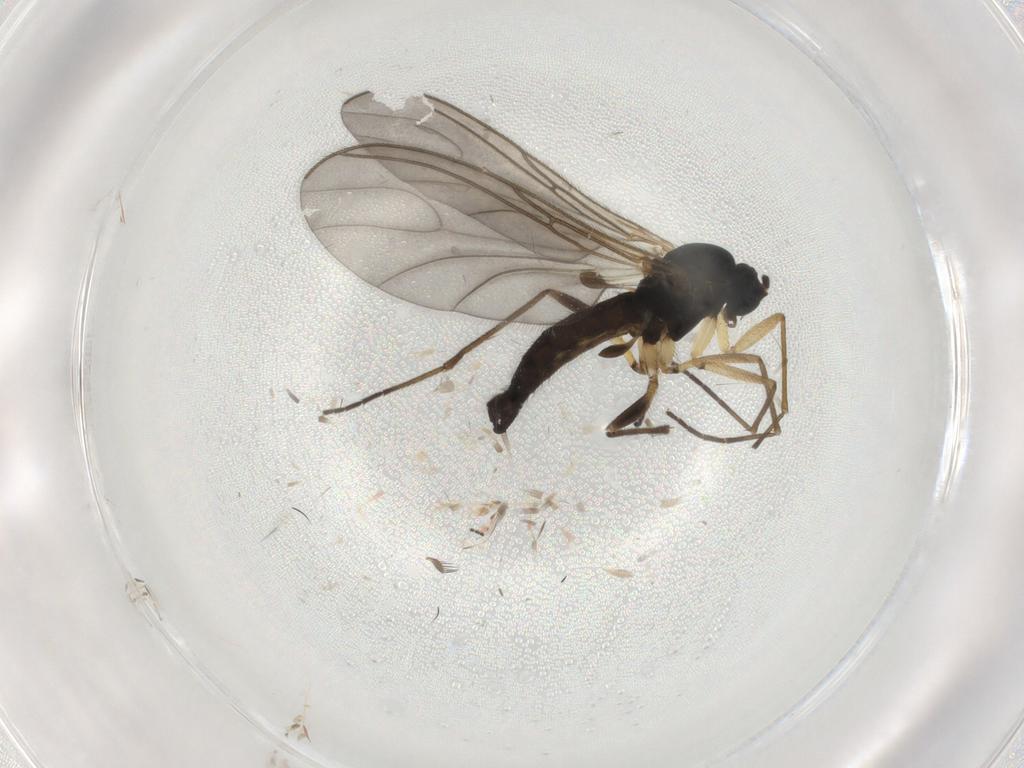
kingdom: Animalia
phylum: Arthropoda
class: Insecta
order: Diptera
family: Sciaridae
